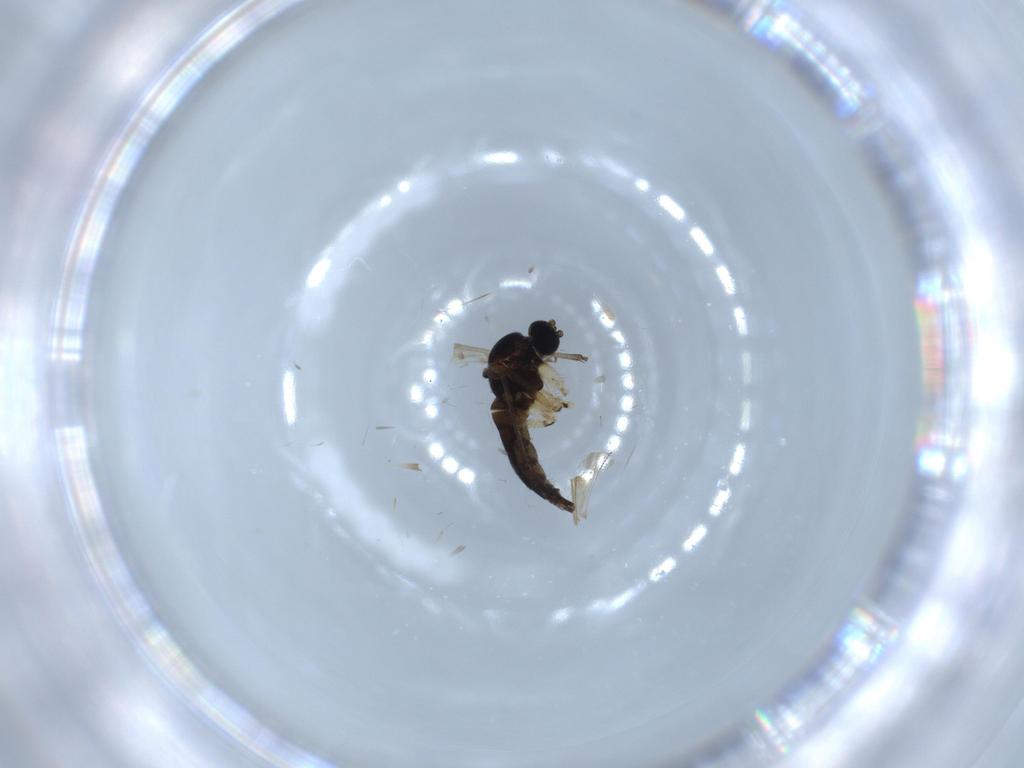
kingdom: Animalia
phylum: Arthropoda
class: Insecta
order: Diptera
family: Sciaridae
